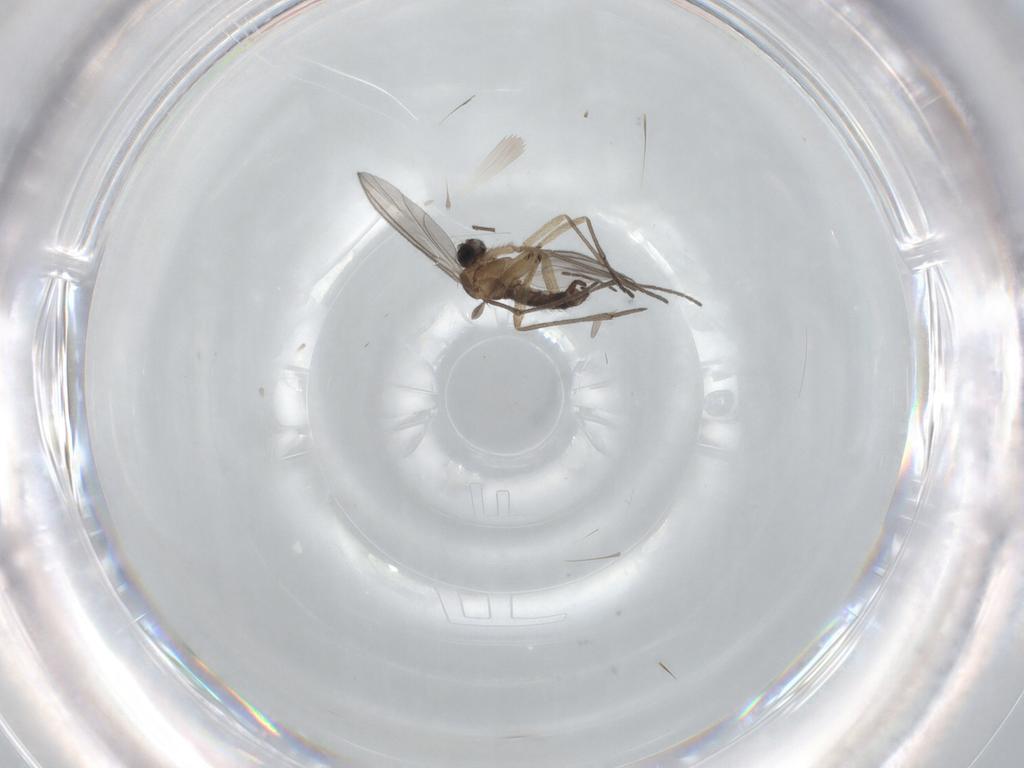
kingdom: Animalia
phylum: Arthropoda
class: Insecta
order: Diptera
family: Sciaridae
